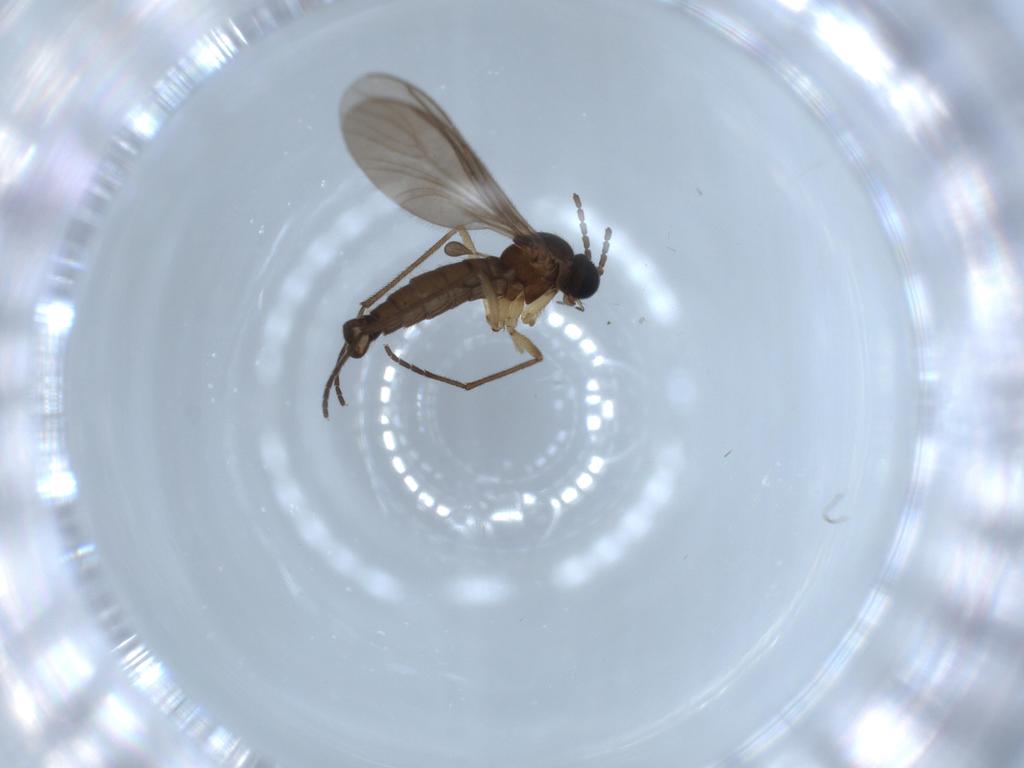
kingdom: Animalia
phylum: Arthropoda
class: Insecta
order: Diptera
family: Sciaridae
